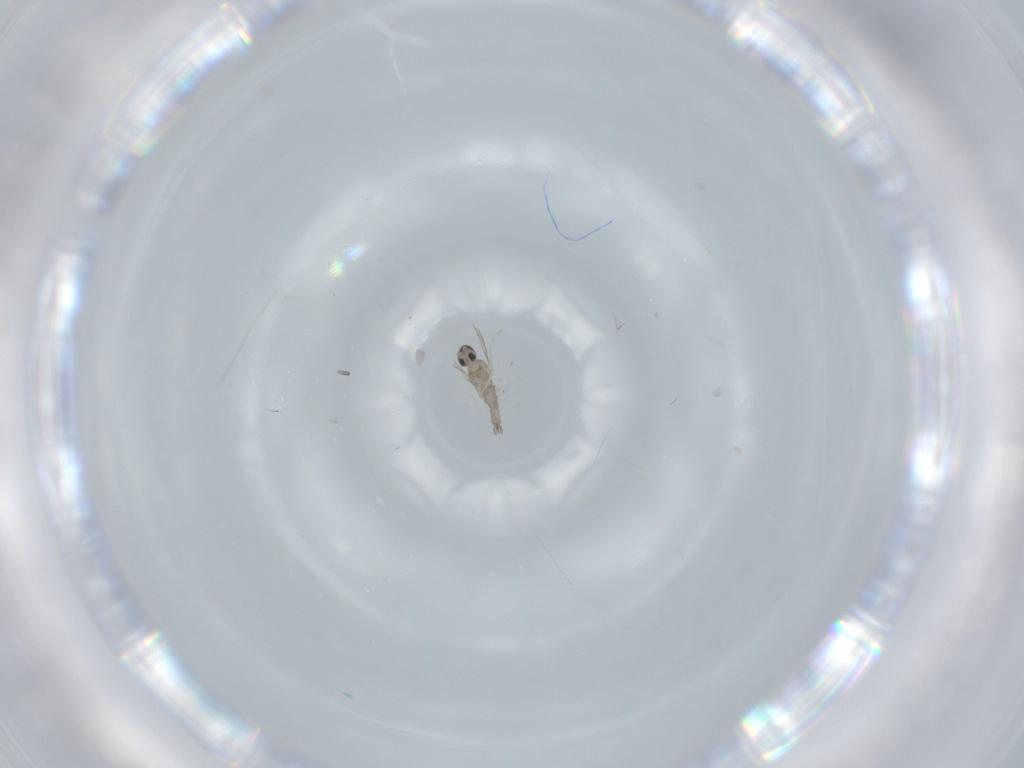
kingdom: Animalia
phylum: Arthropoda
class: Insecta
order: Diptera
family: Cecidomyiidae
